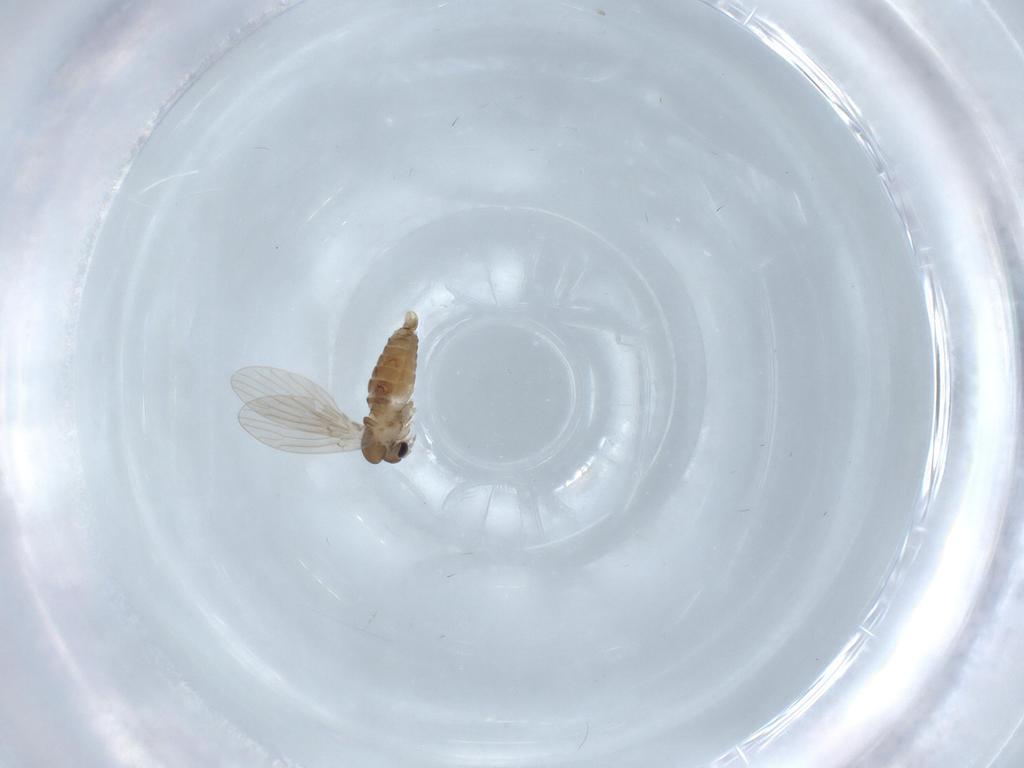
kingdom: Animalia
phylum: Arthropoda
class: Insecta
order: Diptera
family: Psychodidae
